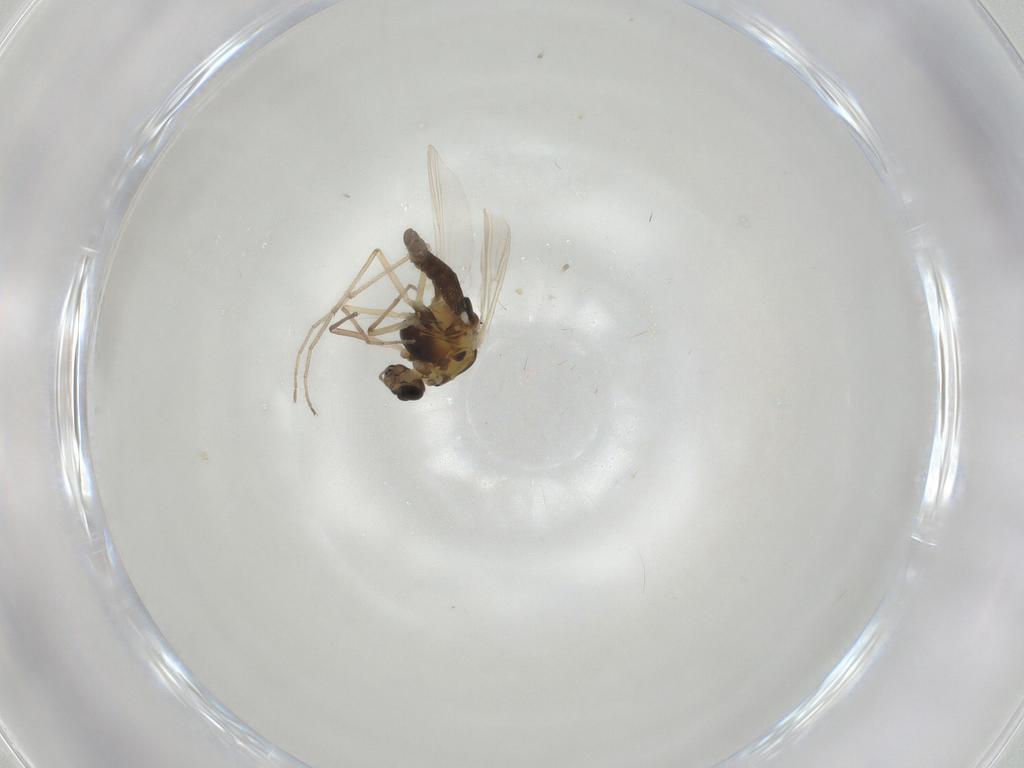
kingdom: Animalia
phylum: Arthropoda
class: Insecta
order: Diptera
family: Chironomidae
